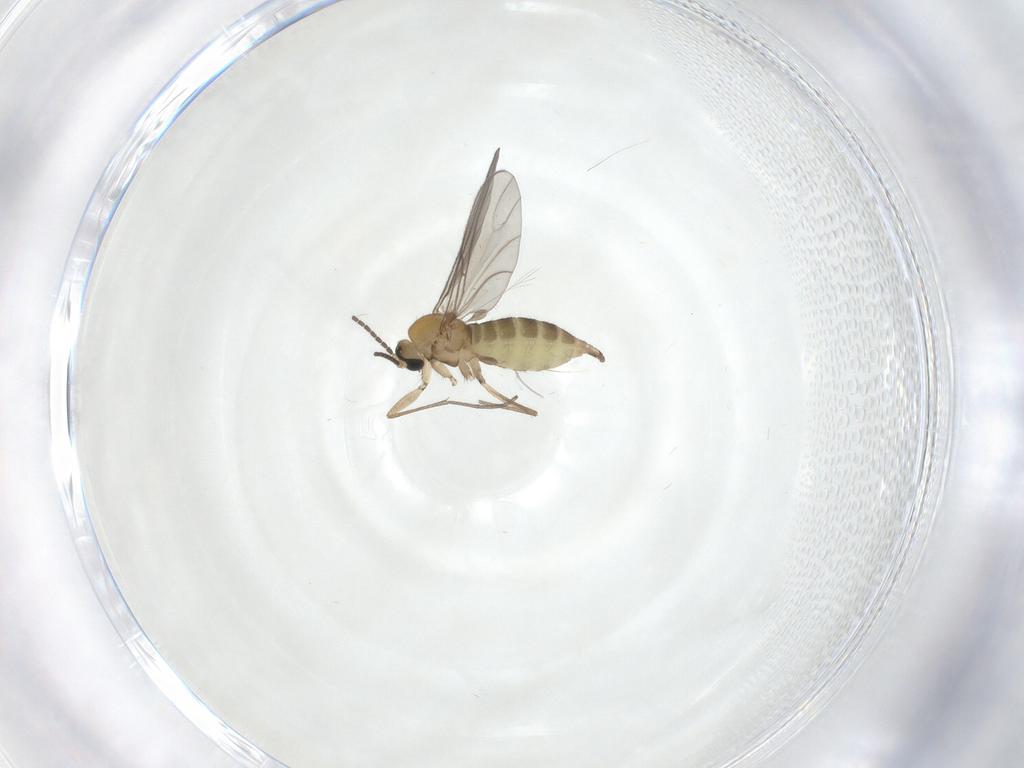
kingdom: Animalia
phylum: Arthropoda
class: Insecta
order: Diptera
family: Sciaridae
